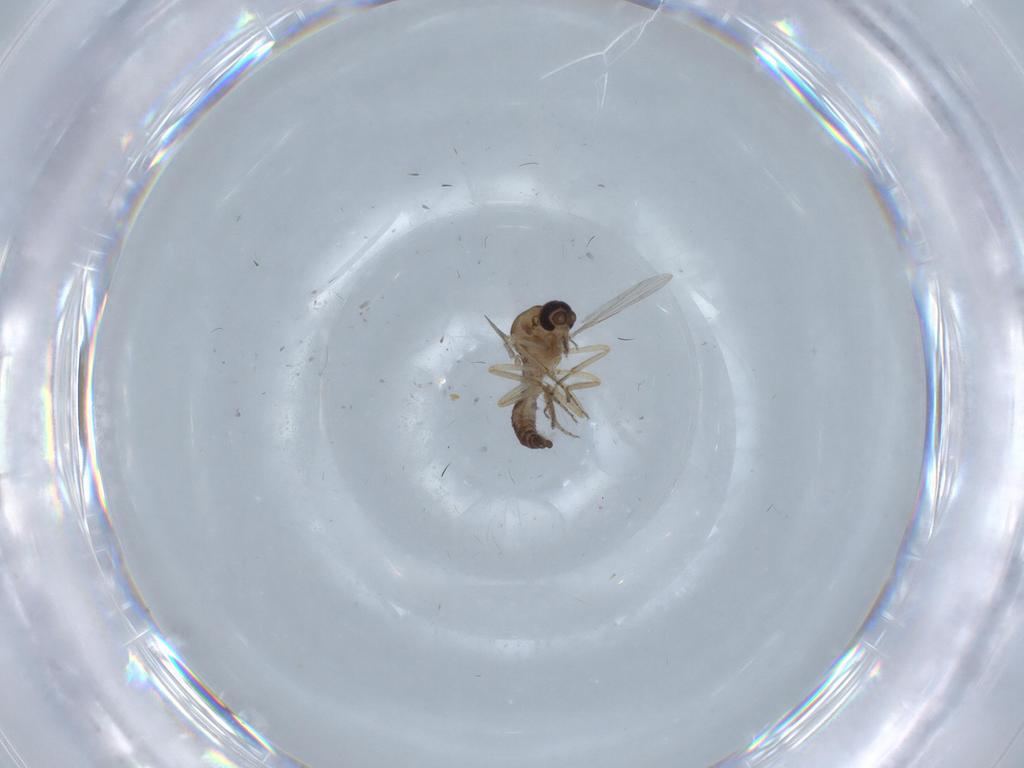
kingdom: Animalia
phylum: Arthropoda
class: Insecta
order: Diptera
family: Ceratopogonidae
